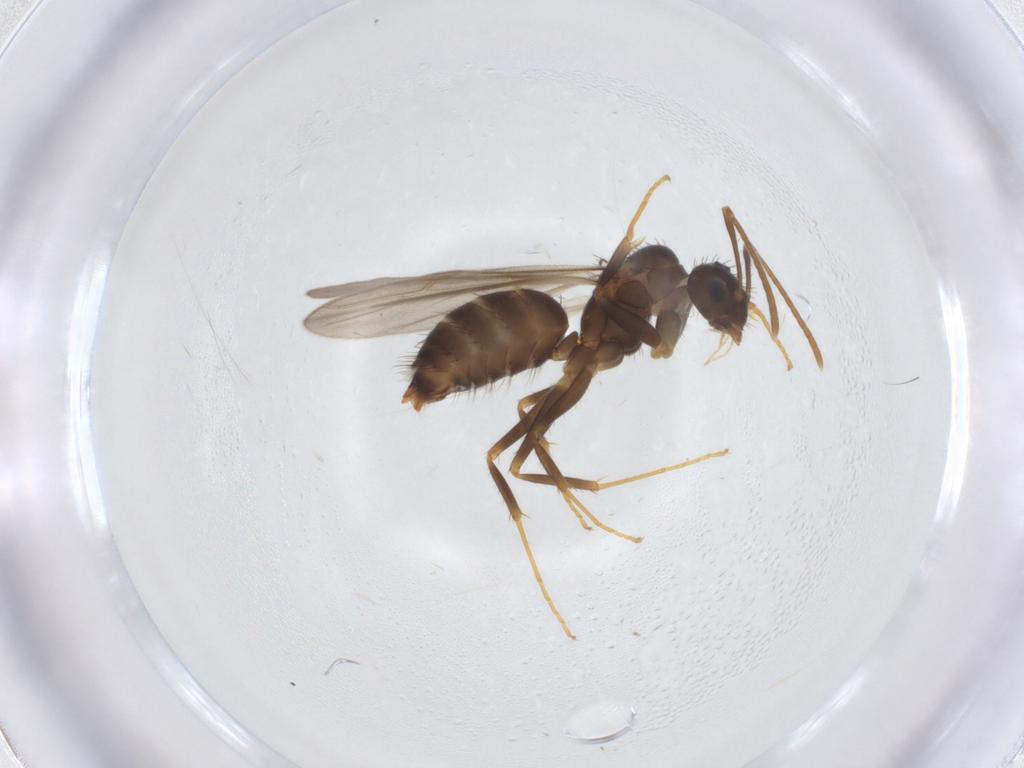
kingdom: Animalia
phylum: Arthropoda
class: Insecta
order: Hymenoptera
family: Formicidae
